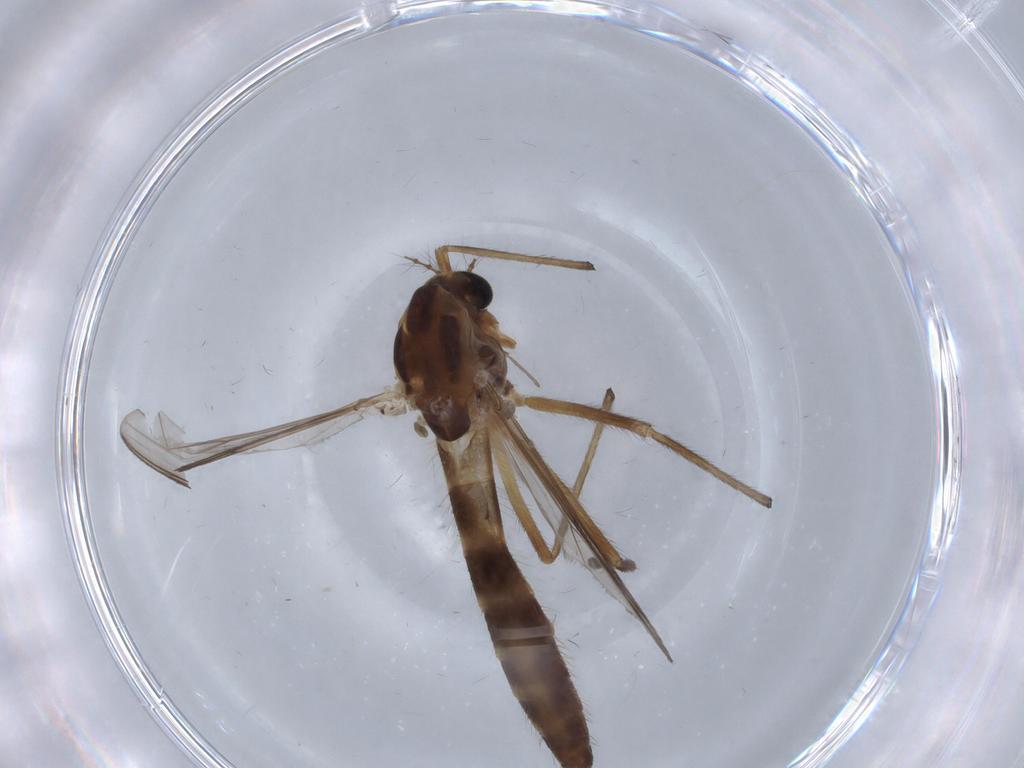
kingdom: Animalia
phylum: Arthropoda
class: Insecta
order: Diptera
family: Chironomidae
